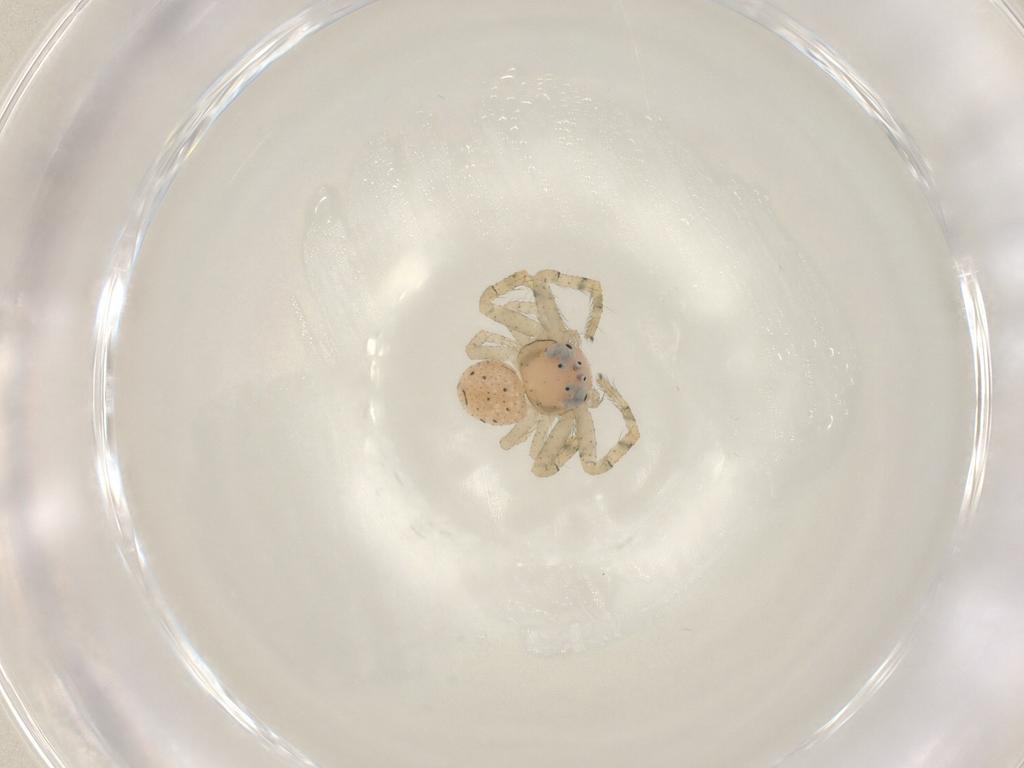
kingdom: Animalia
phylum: Arthropoda
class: Arachnida
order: Araneae
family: Thomisidae
